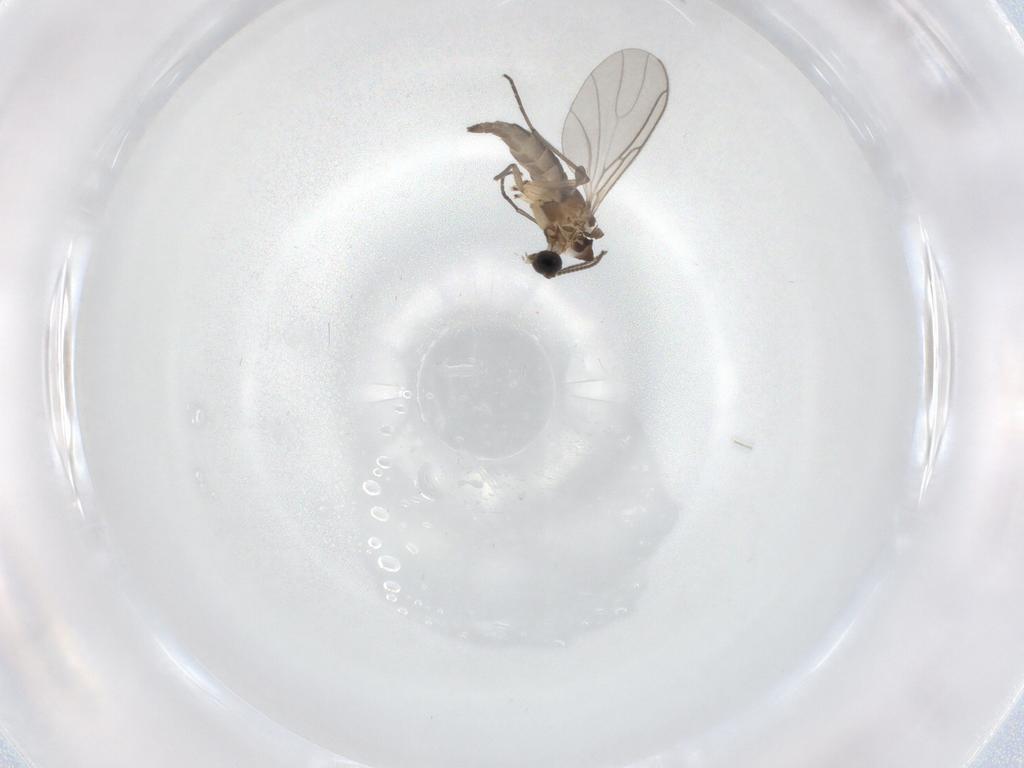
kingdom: Animalia
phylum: Arthropoda
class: Insecta
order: Diptera
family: Sciaridae
